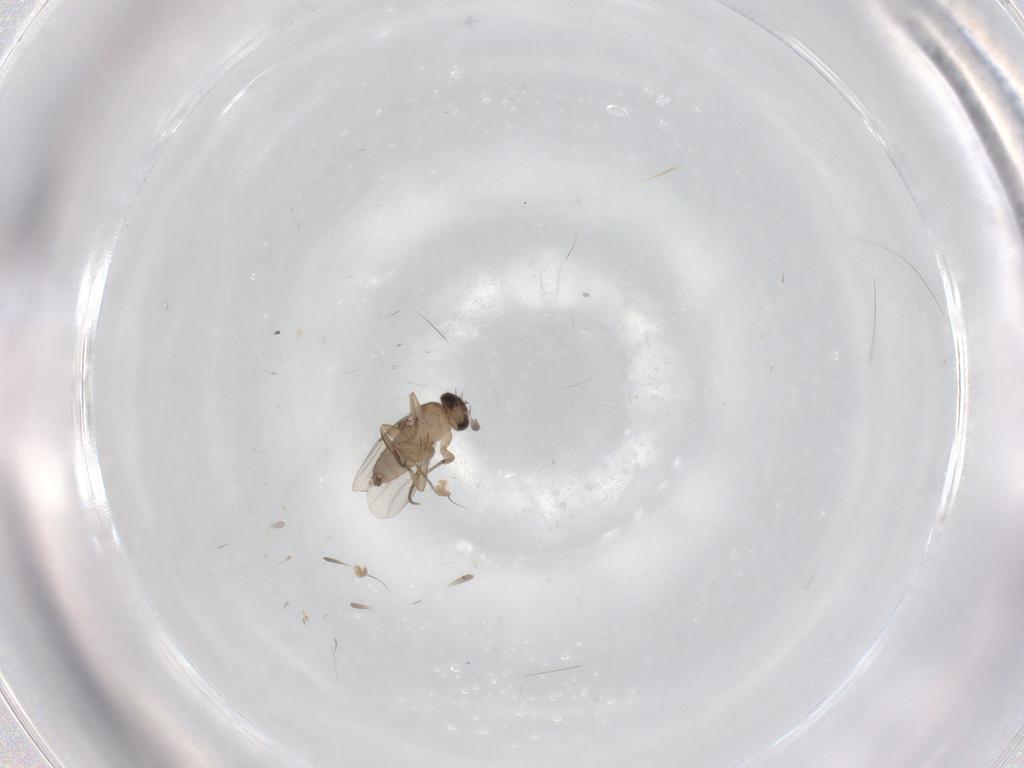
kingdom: Animalia
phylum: Arthropoda
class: Insecta
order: Diptera
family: Phoridae
